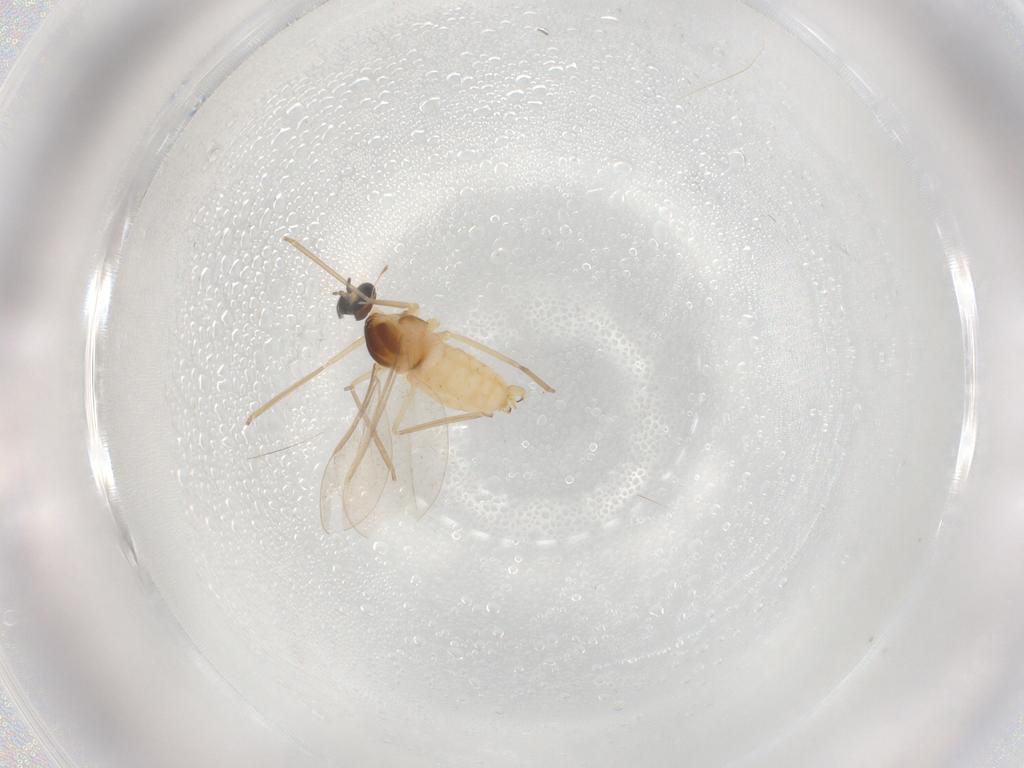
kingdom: Animalia
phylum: Arthropoda
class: Insecta
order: Diptera
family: Cecidomyiidae
